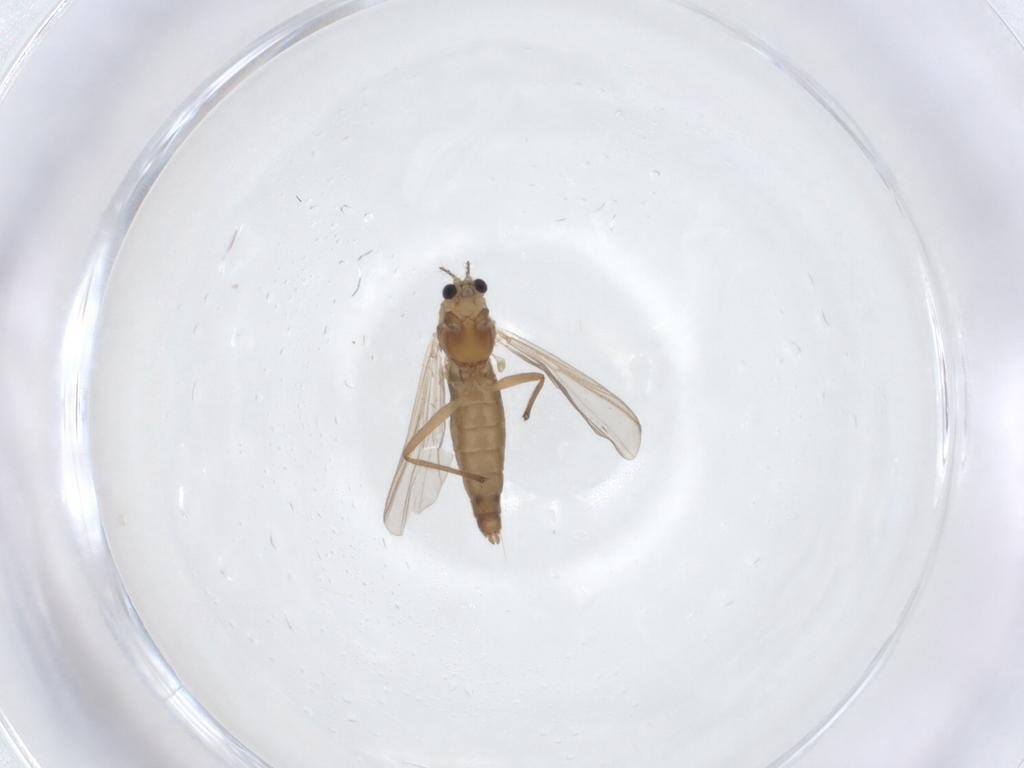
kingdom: Animalia
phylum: Arthropoda
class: Insecta
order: Diptera
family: Chironomidae
